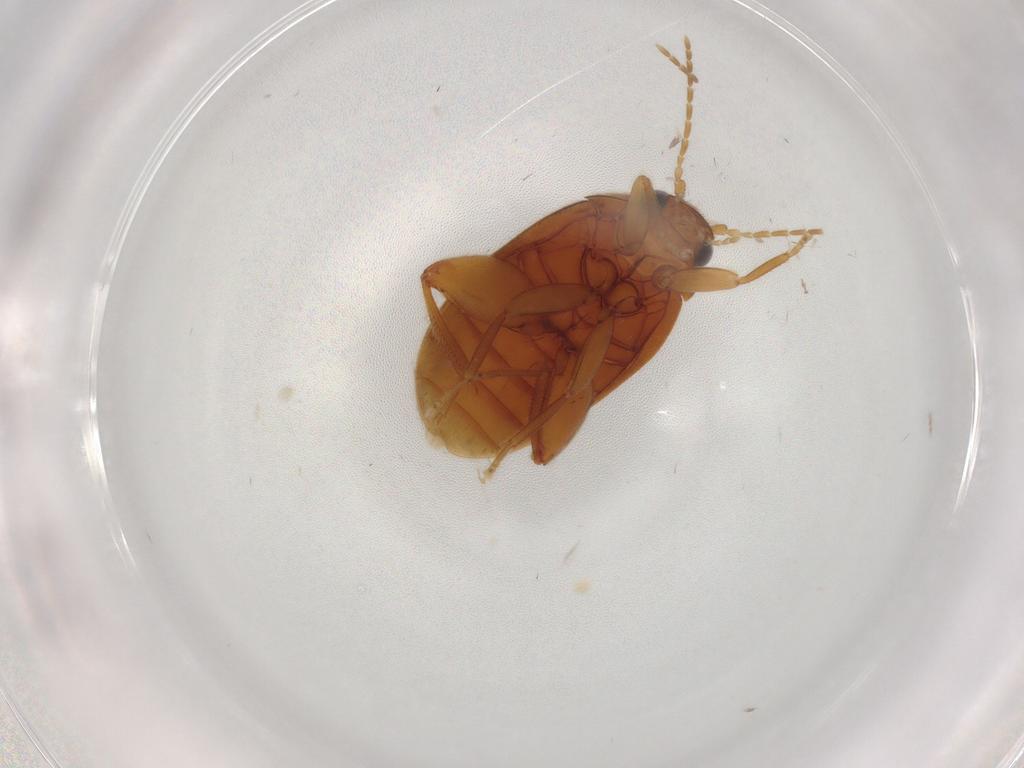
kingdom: Animalia
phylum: Arthropoda
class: Insecta
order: Coleoptera
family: Scirtidae
